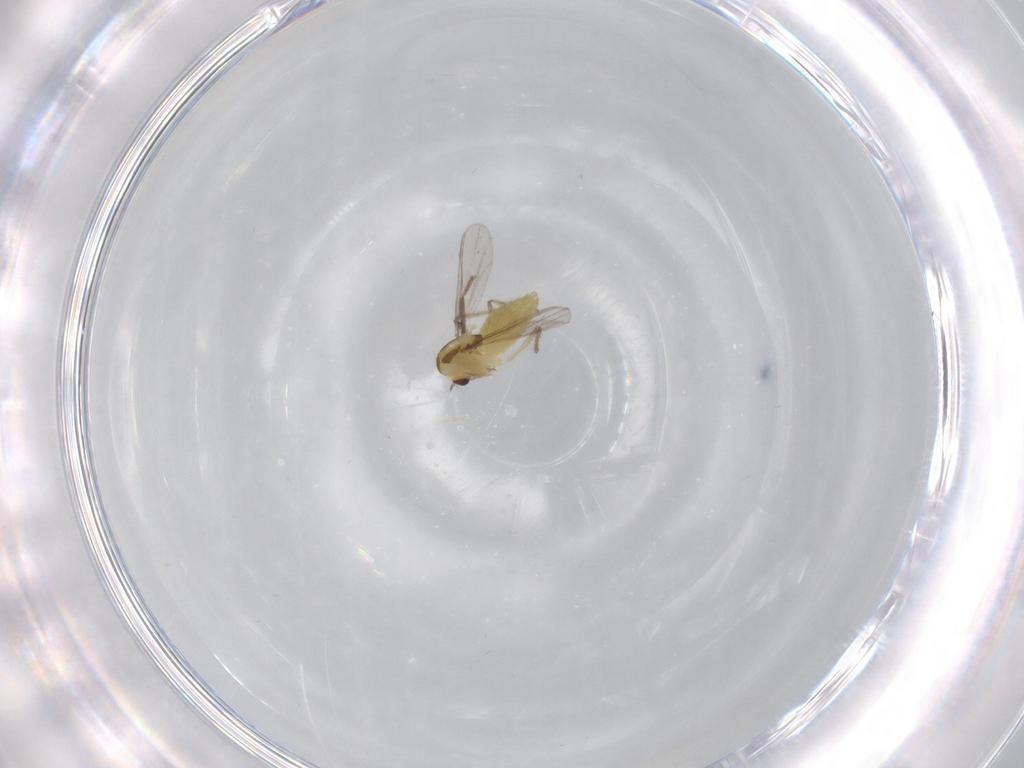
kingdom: Animalia
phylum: Arthropoda
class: Insecta
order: Diptera
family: Chironomidae
